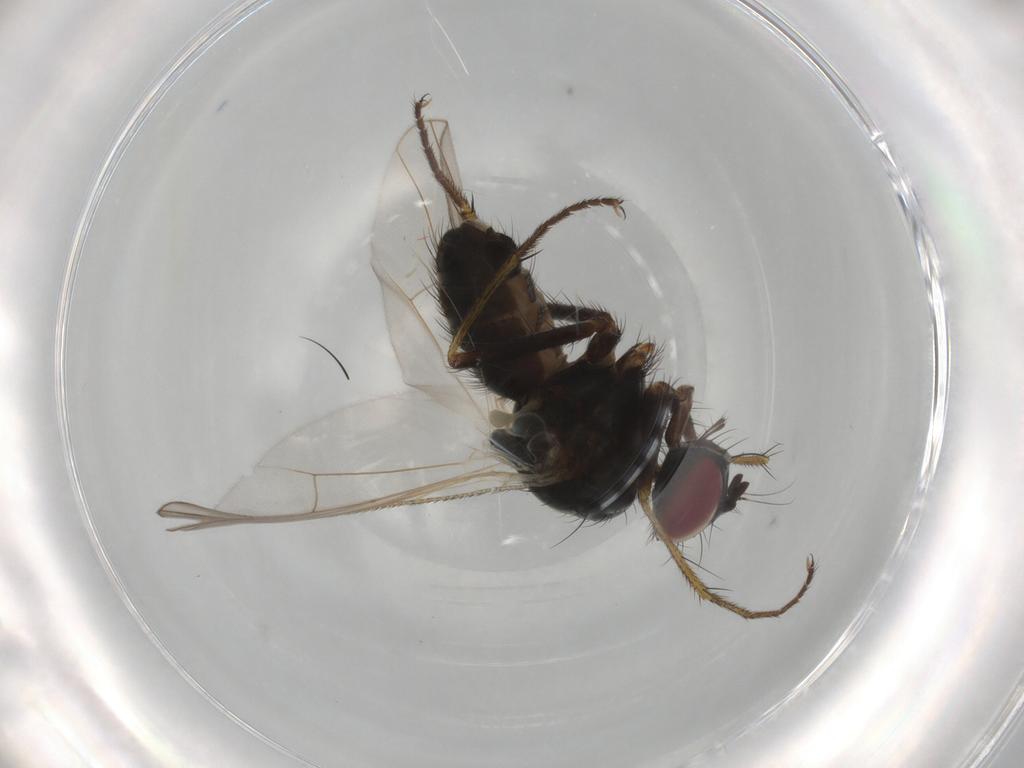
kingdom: Animalia
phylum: Arthropoda
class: Insecta
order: Diptera
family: Muscidae
